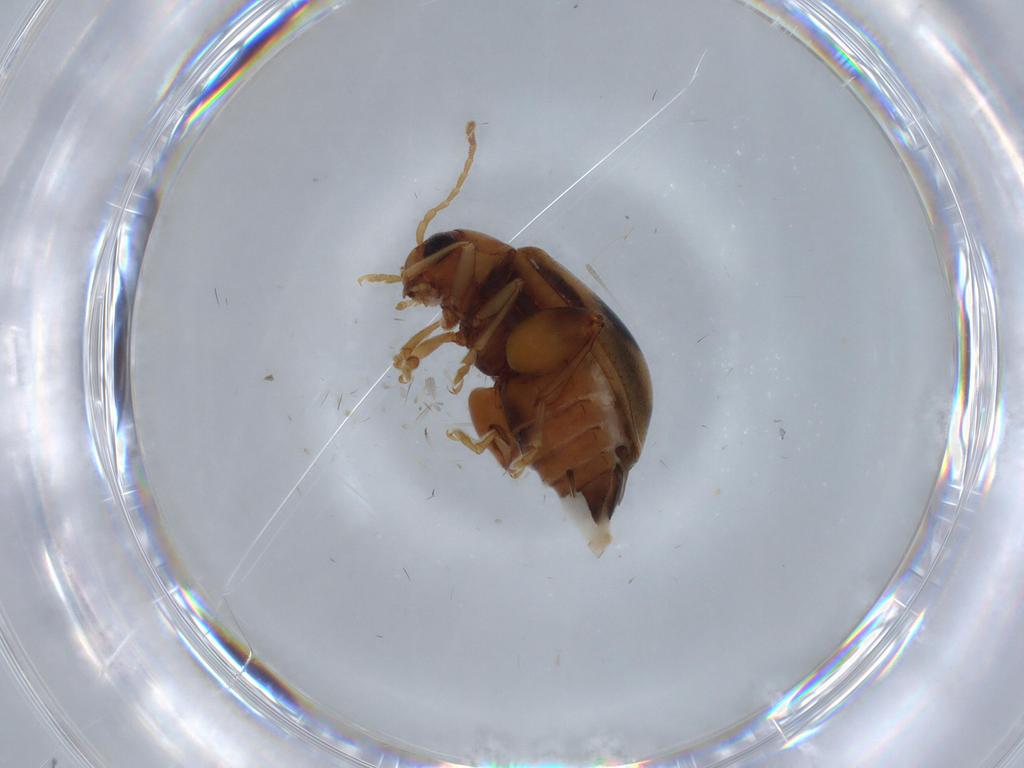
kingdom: Animalia
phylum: Arthropoda
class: Insecta
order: Coleoptera
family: Chrysomelidae
